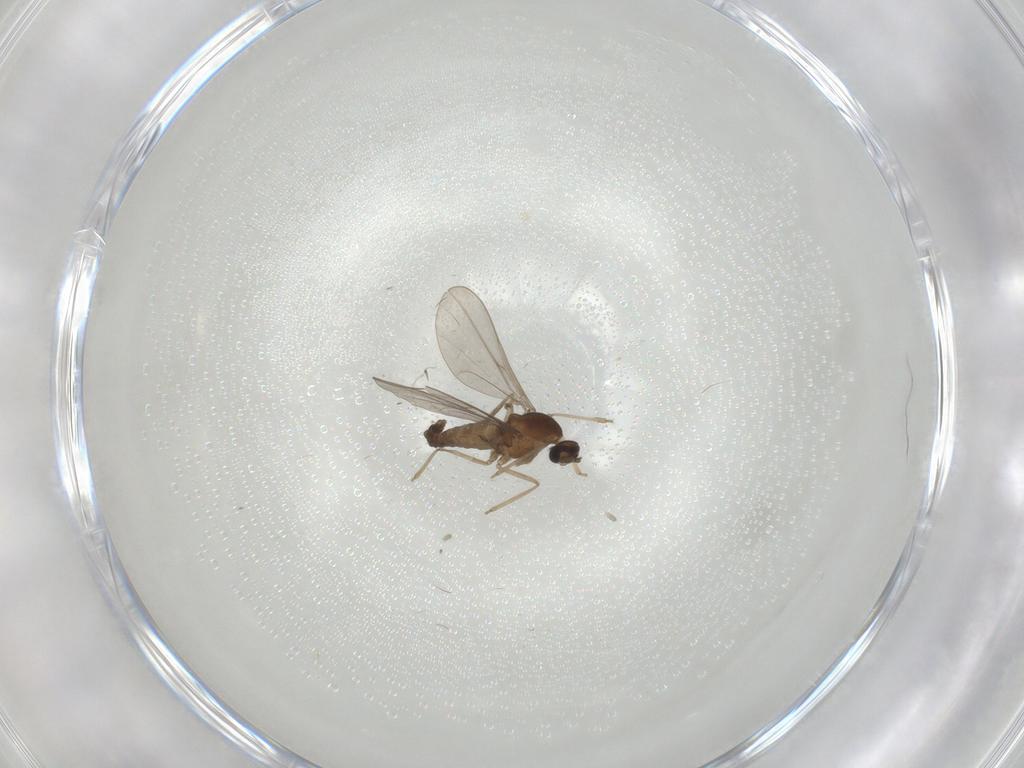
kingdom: Animalia
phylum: Arthropoda
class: Insecta
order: Diptera
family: Cecidomyiidae
